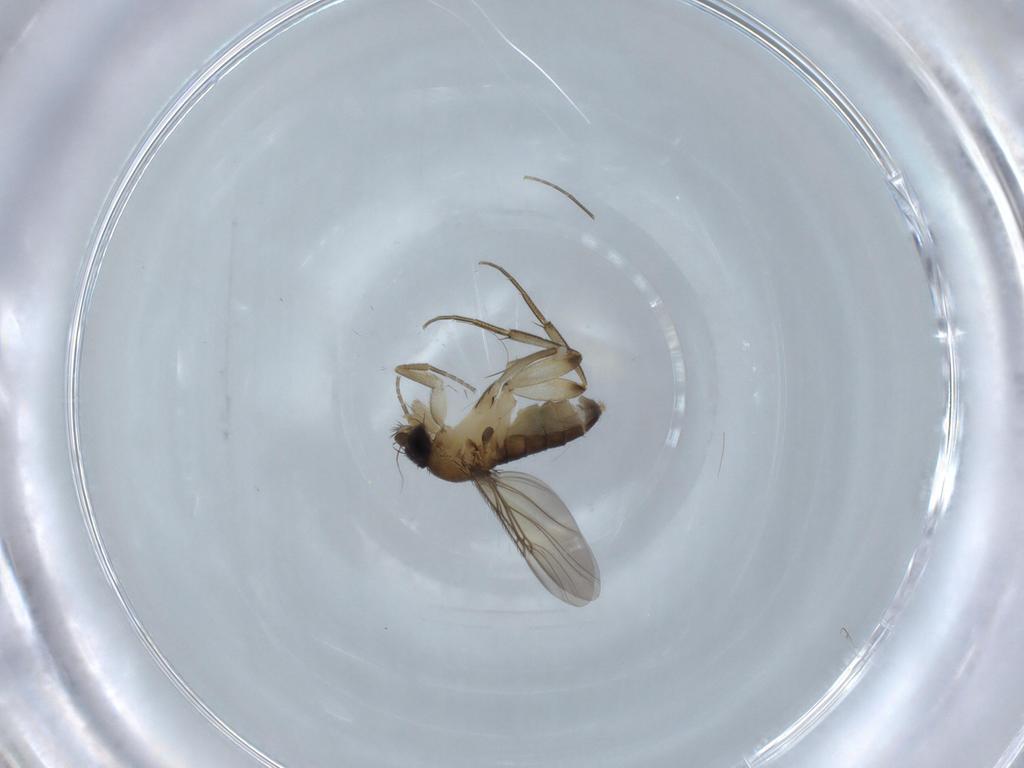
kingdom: Animalia
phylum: Arthropoda
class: Insecta
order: Diptera
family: Phoridae
